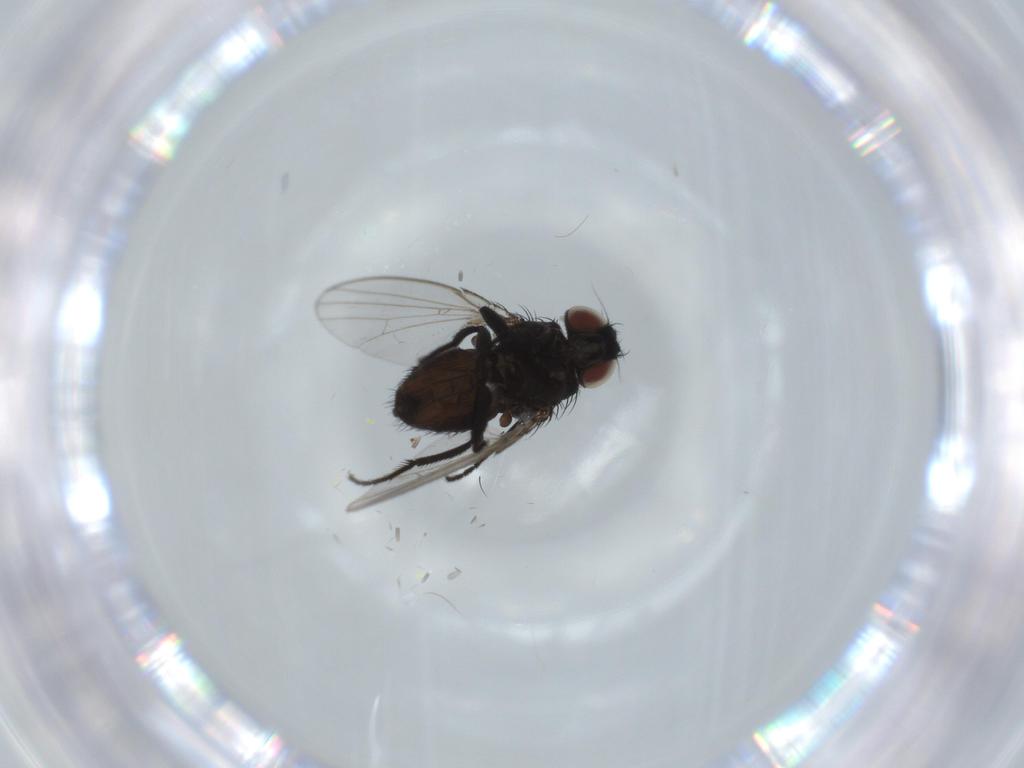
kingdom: Animalia
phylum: Arthropoda
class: Insecta
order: Diptera
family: Milichiidae
